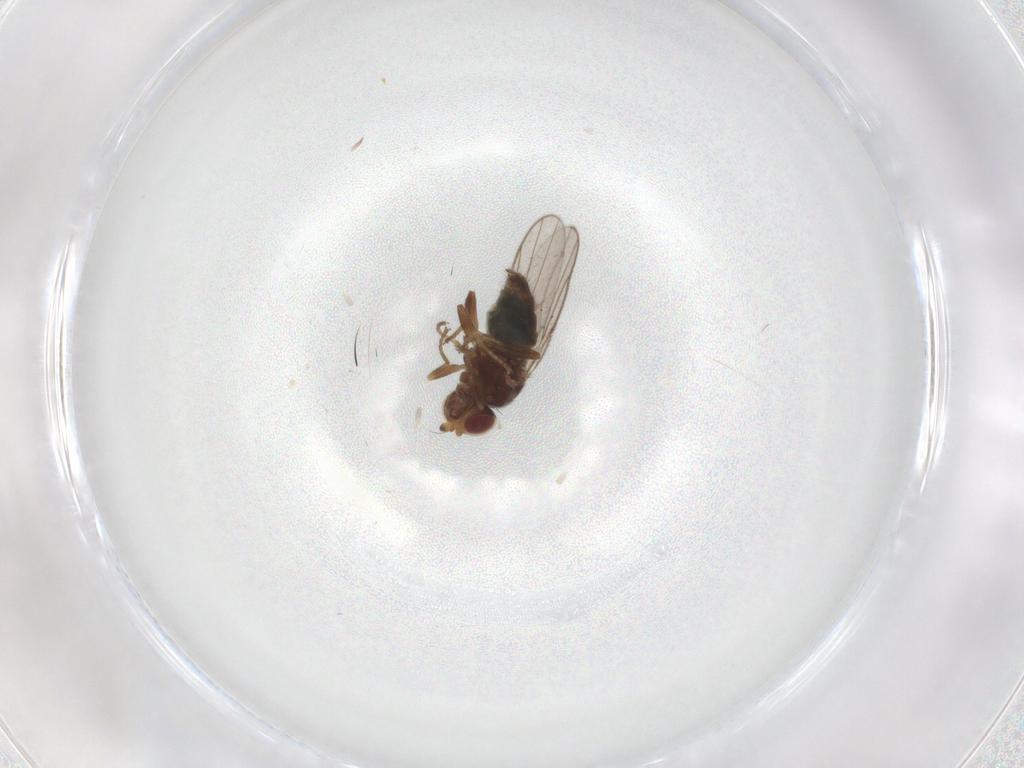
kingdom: Animalia
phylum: Arthropoda
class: Insecta
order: Diptera
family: Chloropidae
